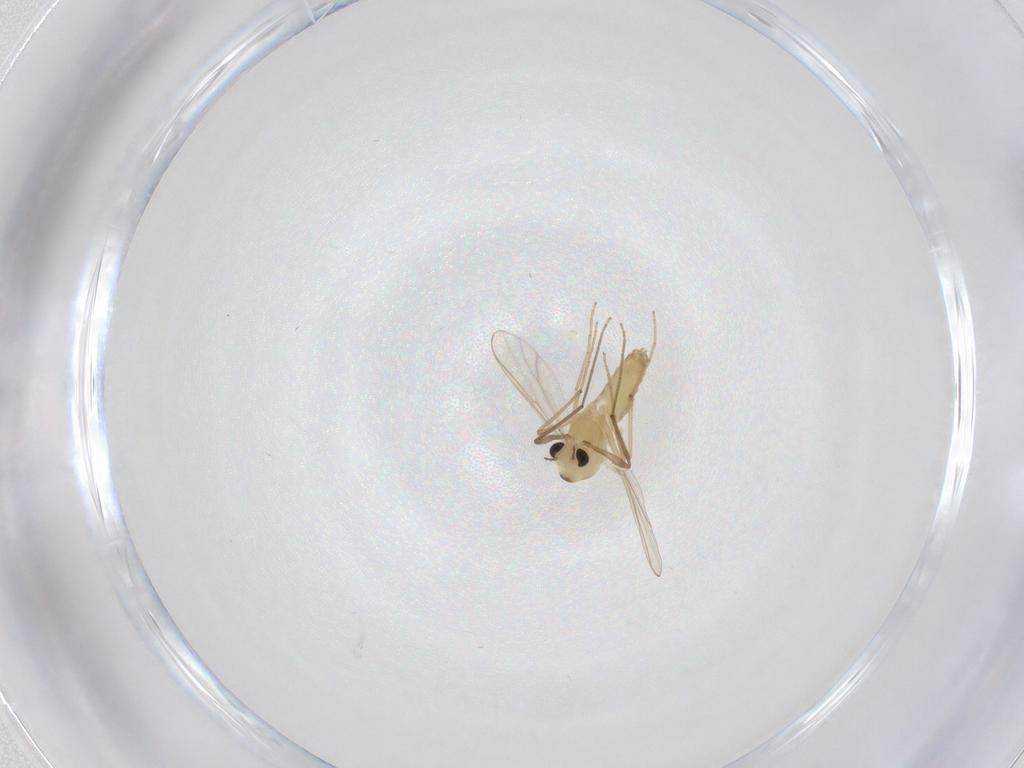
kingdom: Animalia
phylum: Arthropoda
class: Insecta
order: Diptera
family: Chironomidae
